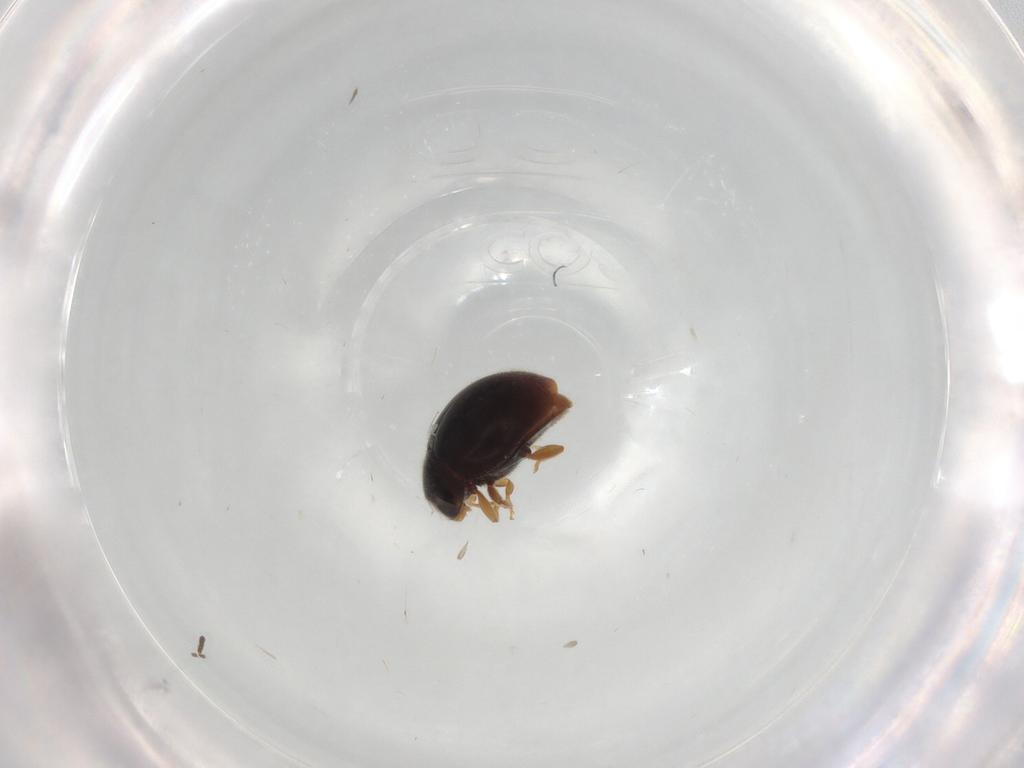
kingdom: Animalia
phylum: Arthropoda
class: Insecta
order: Coleoptera
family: Coccinellidae
